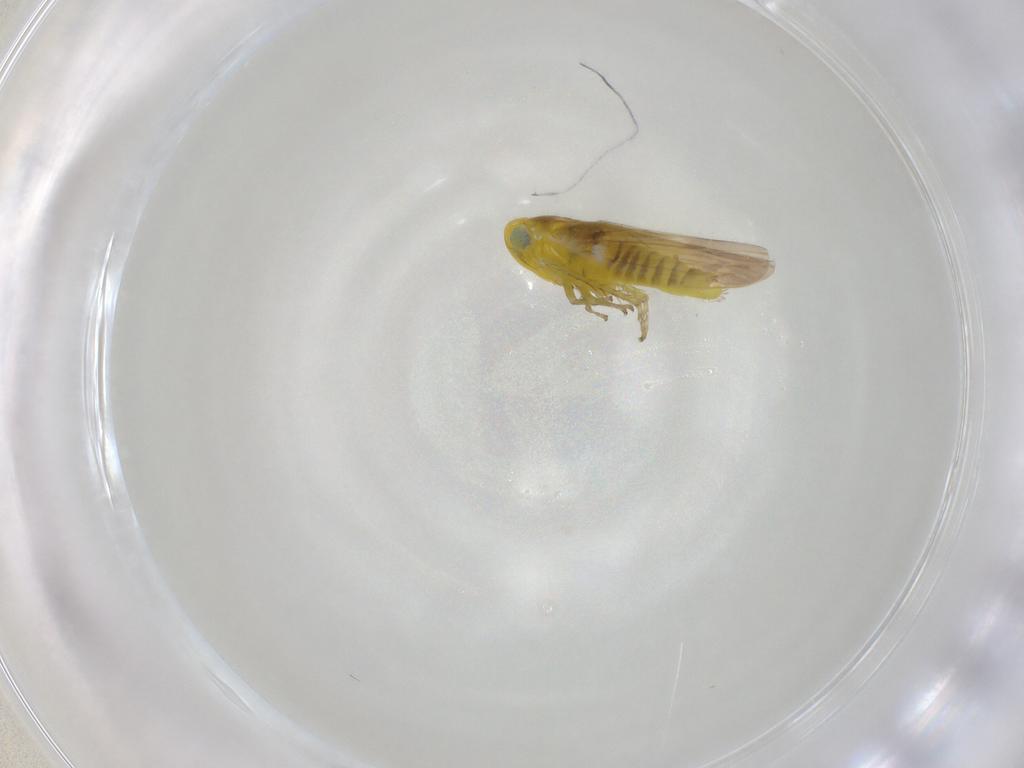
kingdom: Animalia
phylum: Arthropoda
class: Insecta
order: Hemiptera
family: Cicadellidae
